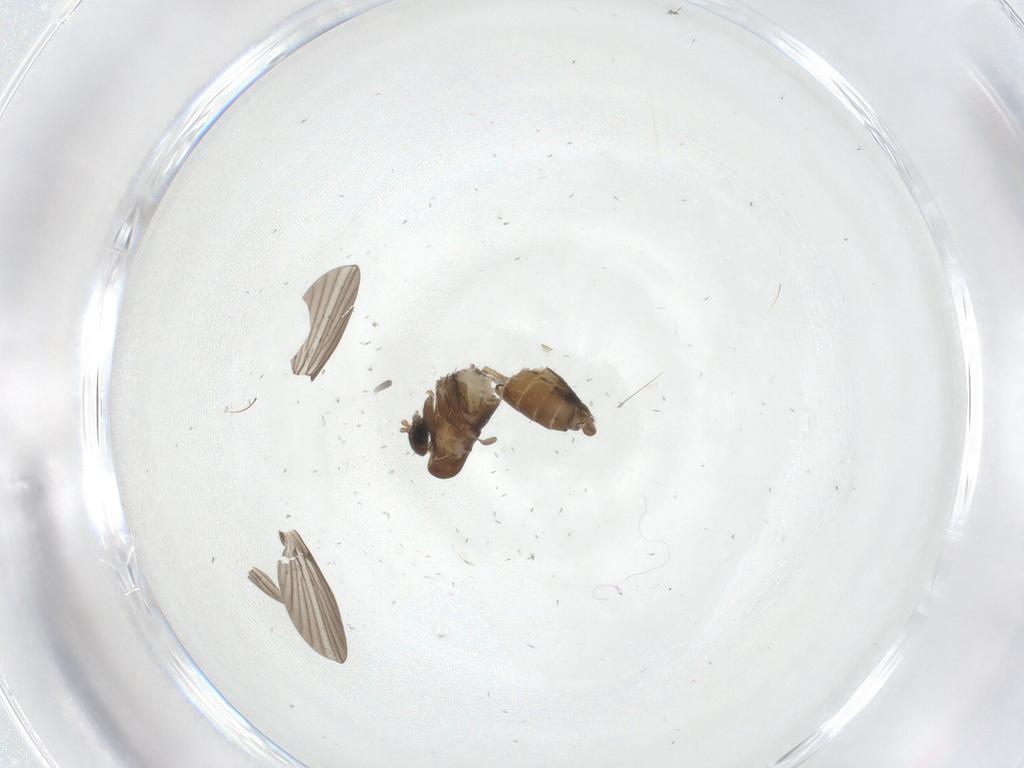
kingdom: Animalia
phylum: Arthropoda
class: Insecta
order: Diptera
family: Psychodidae
